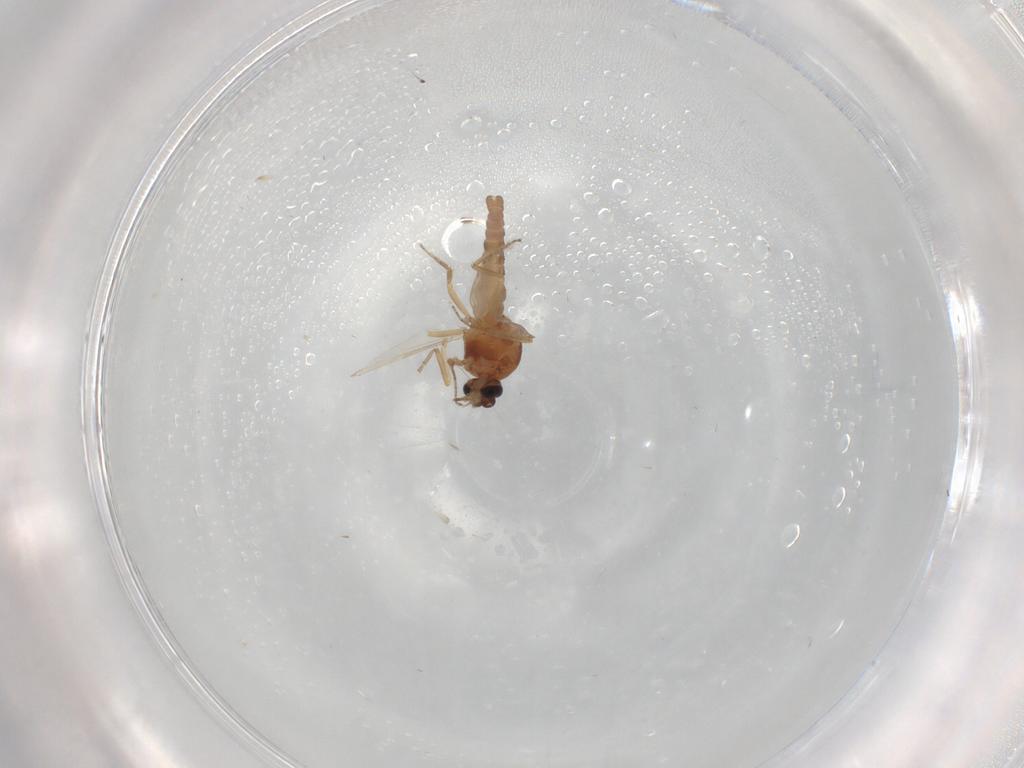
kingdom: Animalia
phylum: Arthropoda
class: Insecta
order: Diptera
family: Ceratopogonidae
